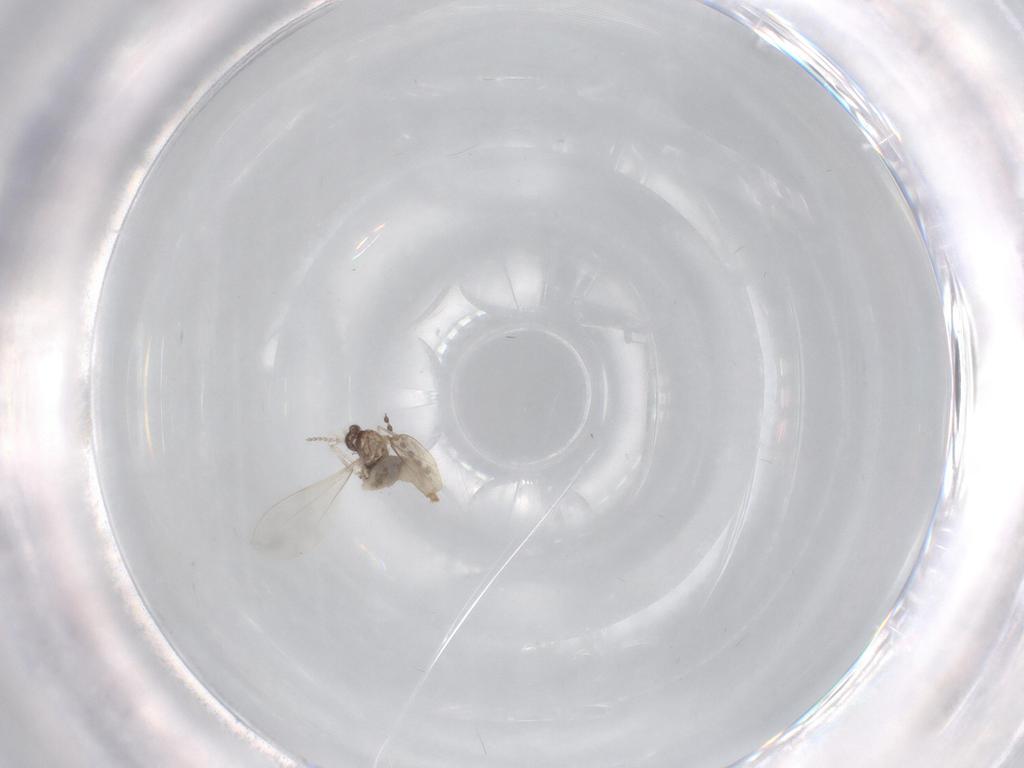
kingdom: Animalia
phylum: Arthropoda
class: Insecta
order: Diptera
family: Cecidomyiidae
